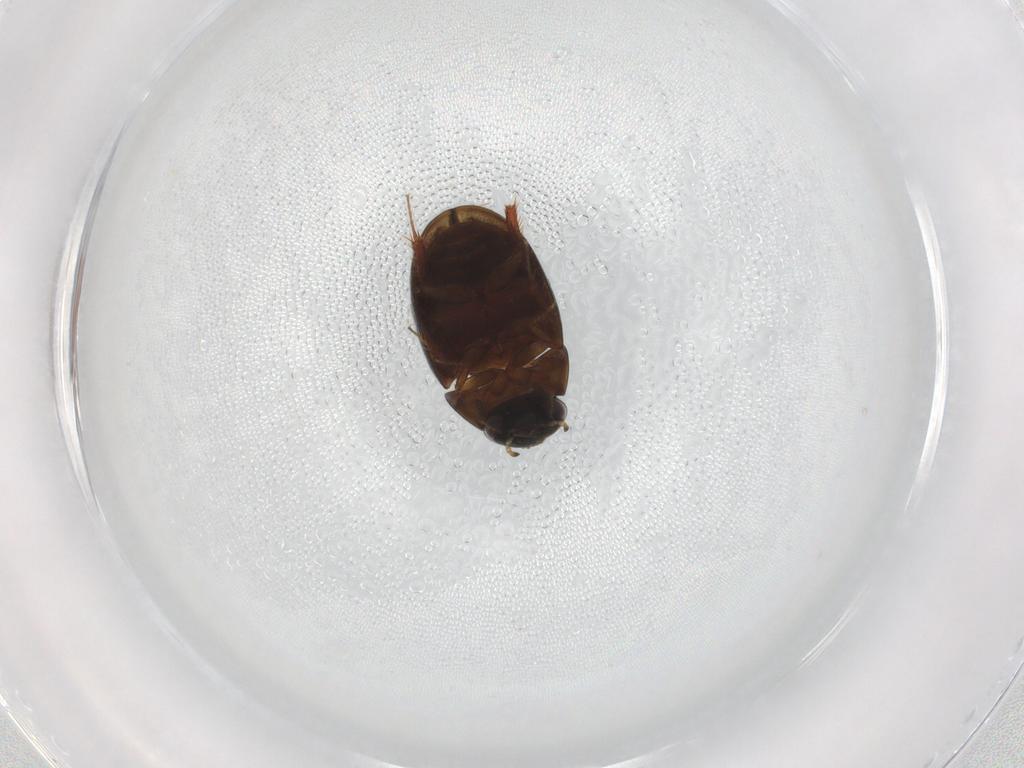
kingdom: Animalia
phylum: Arthropoda
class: Insecta
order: Coleoptera
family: Hydrophilidae
